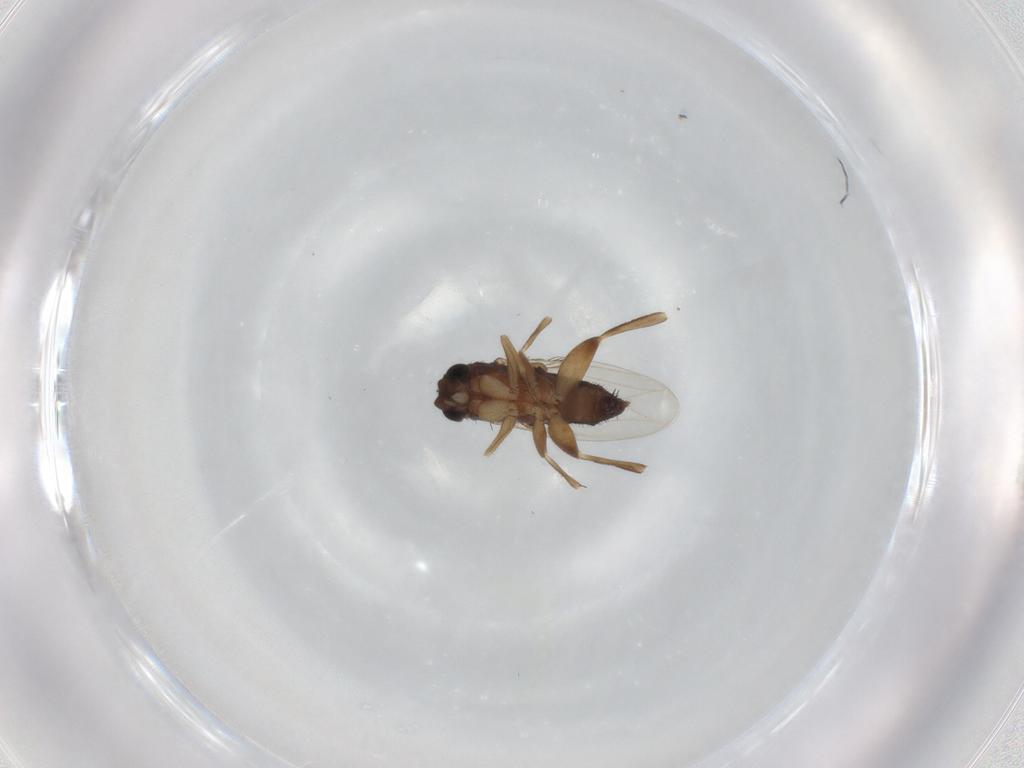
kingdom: Animalia
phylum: Arthropoda
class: Insecta
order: Diptera
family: Phoridae
